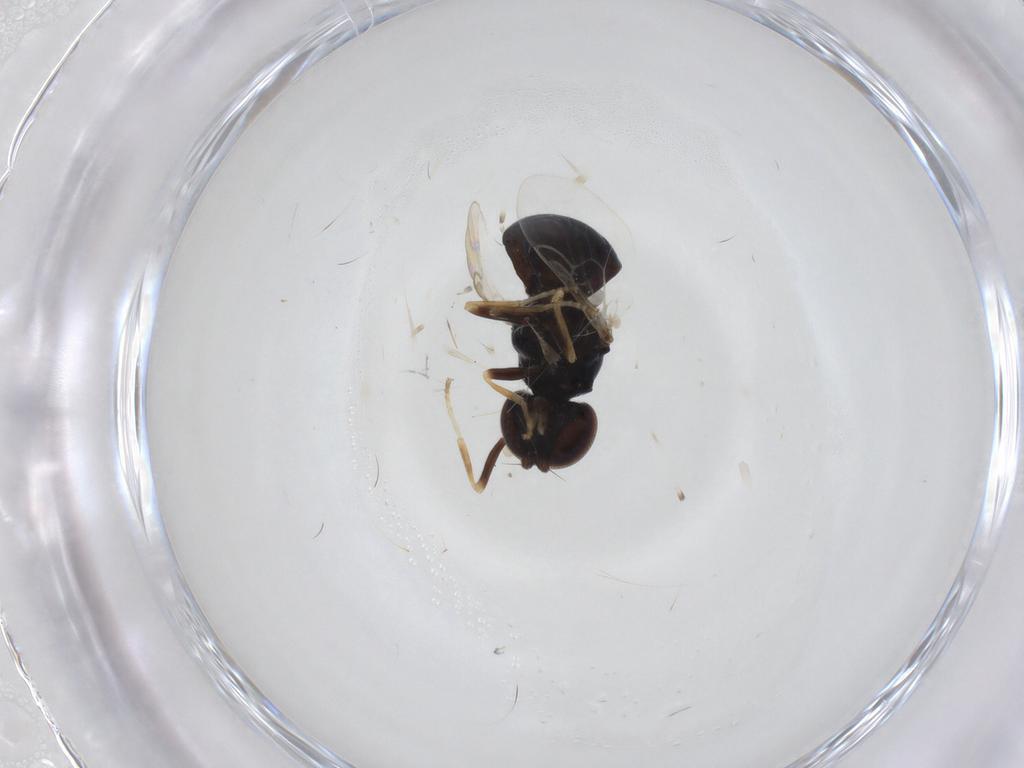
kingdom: Animalia
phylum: Arthropoda
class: Insecta
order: Diptera
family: Stratiomyidae
